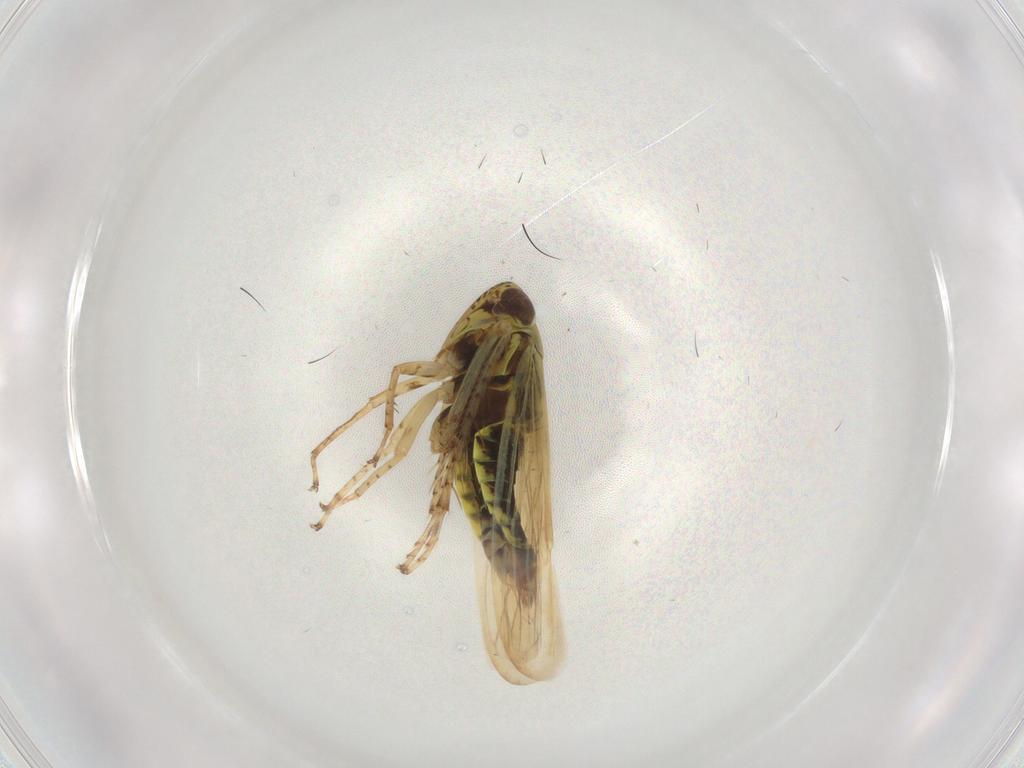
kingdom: Animalia
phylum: Arthropoda
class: Insecta
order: Hemiptera
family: Cicadellidae
